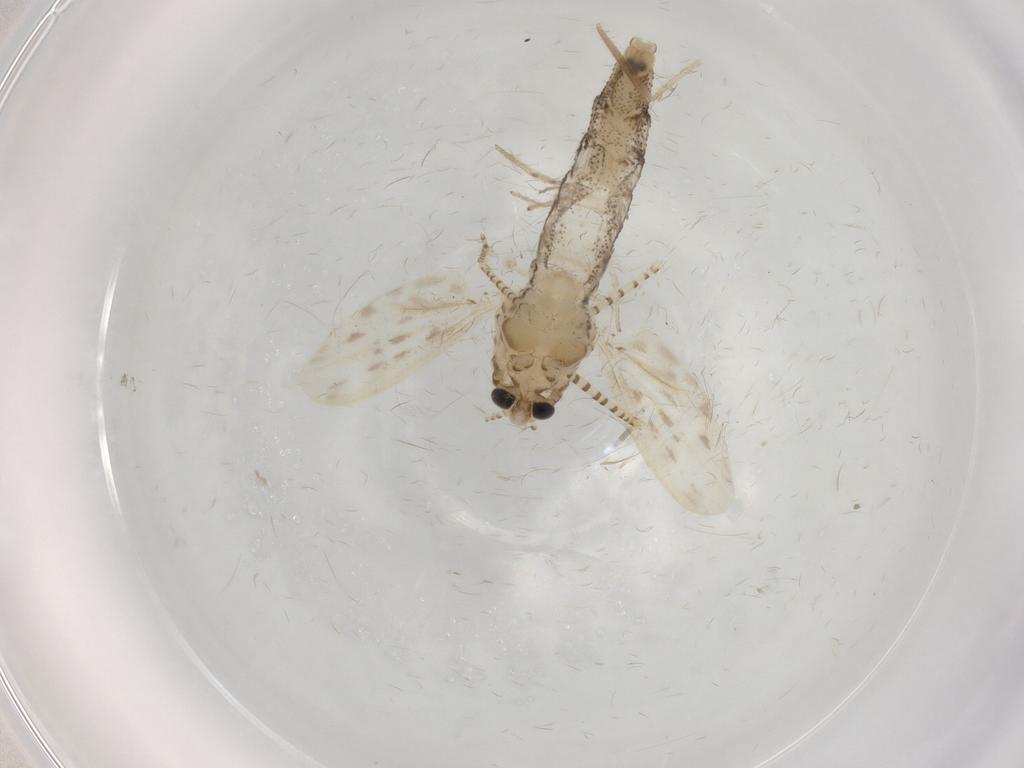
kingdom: Animalia
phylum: Arthropoda
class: Insecta
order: Diptera
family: Chaoboridae
